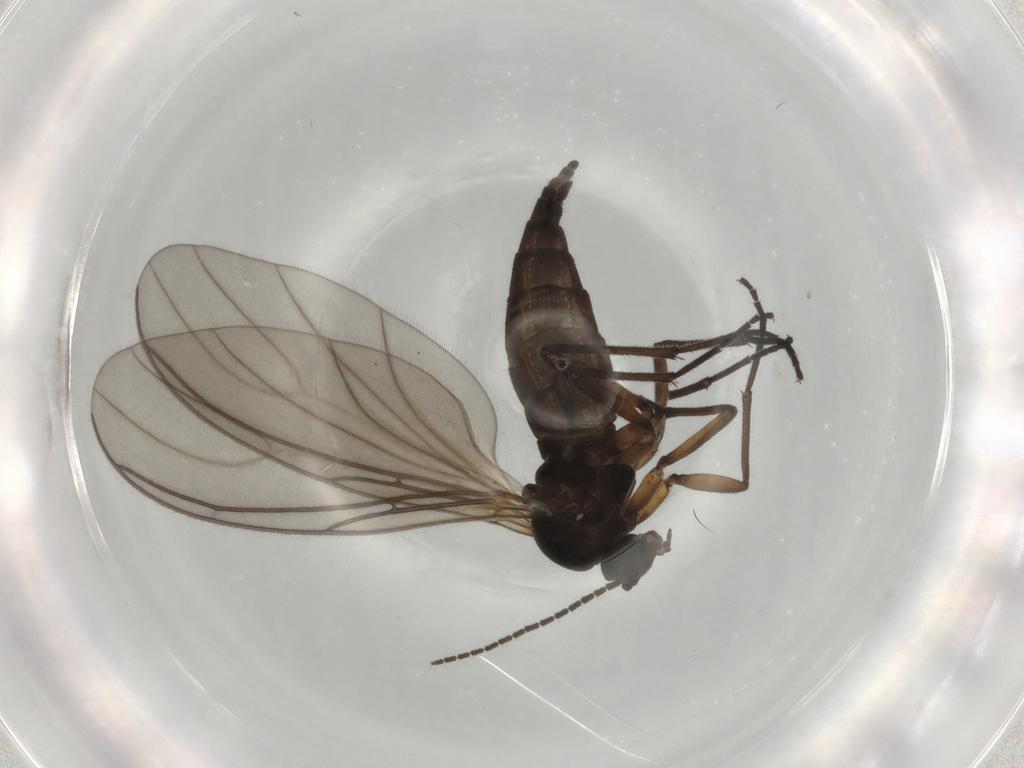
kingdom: Animalia
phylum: Arthropoda
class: Insecta
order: Diptera
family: Sciaridae
